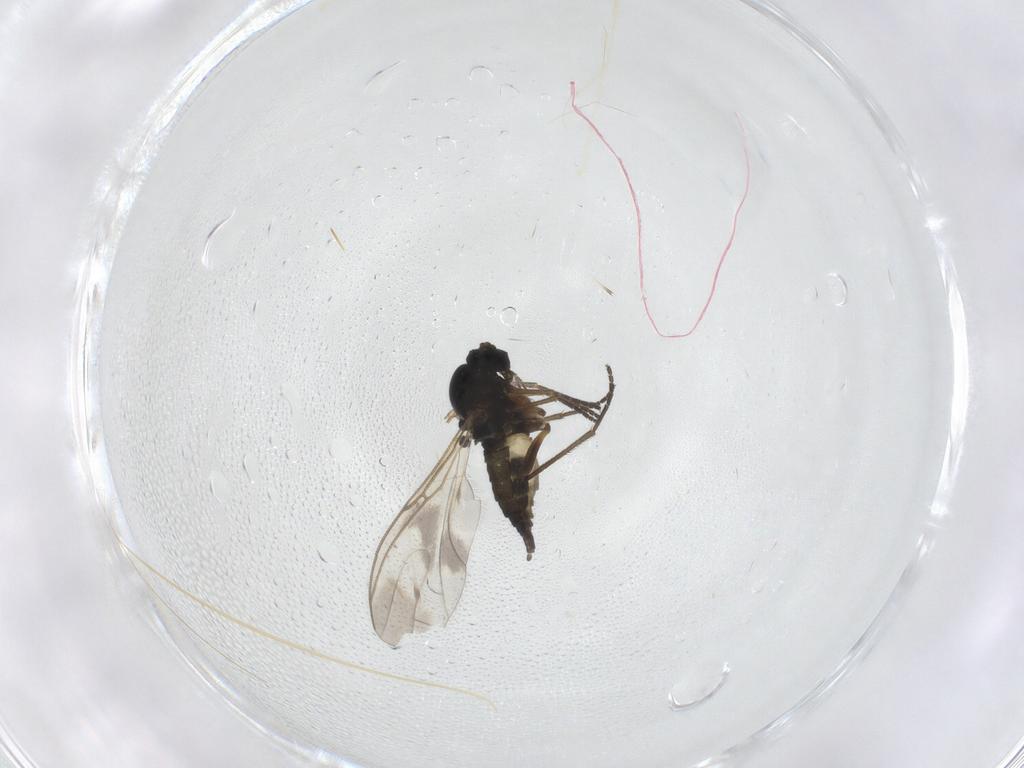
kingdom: Animalia
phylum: Arthropoda
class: Insecta
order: Diptera
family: Sciaridae
